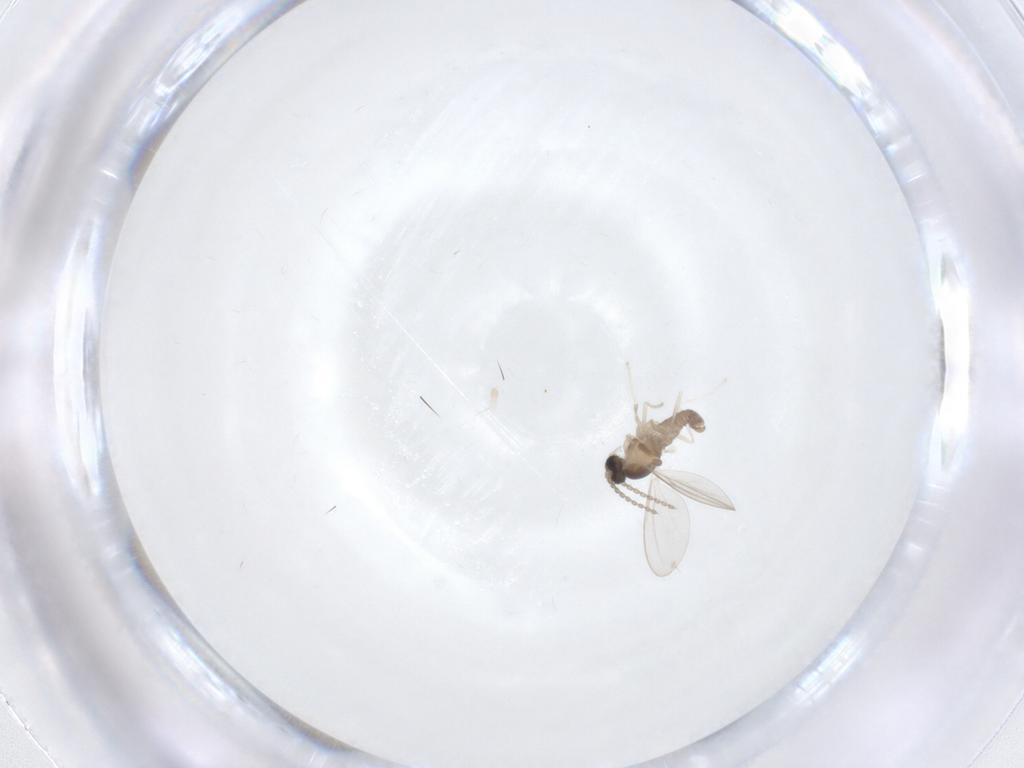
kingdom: Animalia
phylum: Arthropoda
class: Insecta
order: Diptera
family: Cecidomyiidae
